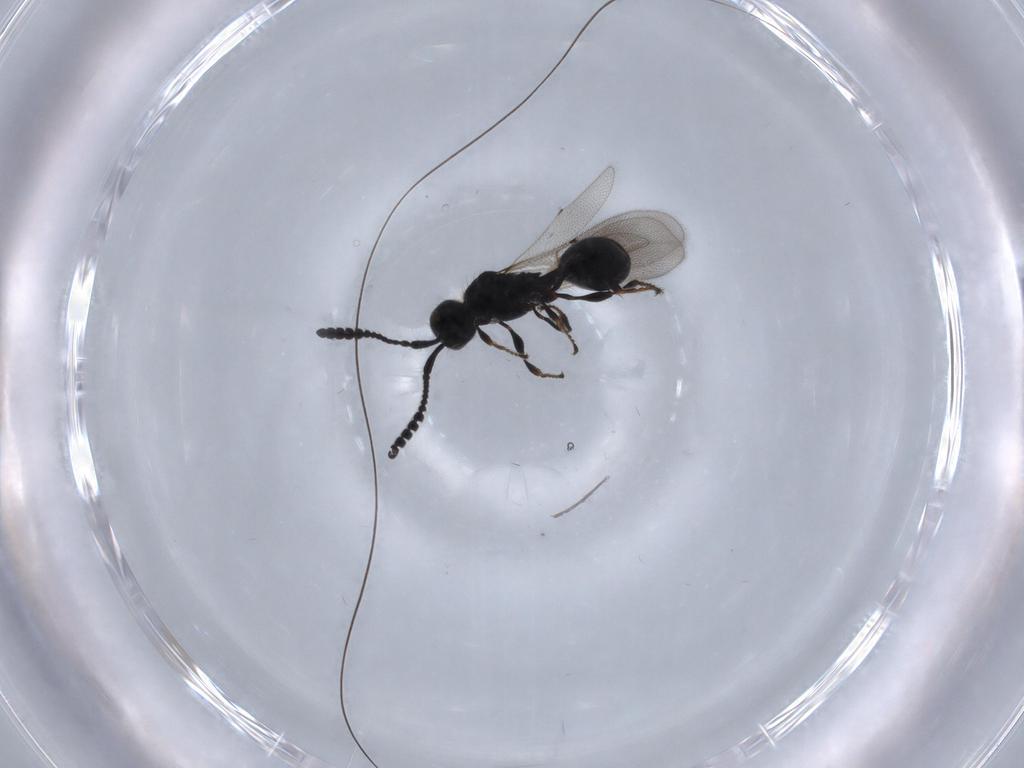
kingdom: Animalia
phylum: Arthropoda
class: Insecta
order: Hymenoptera
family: Diapriidae
